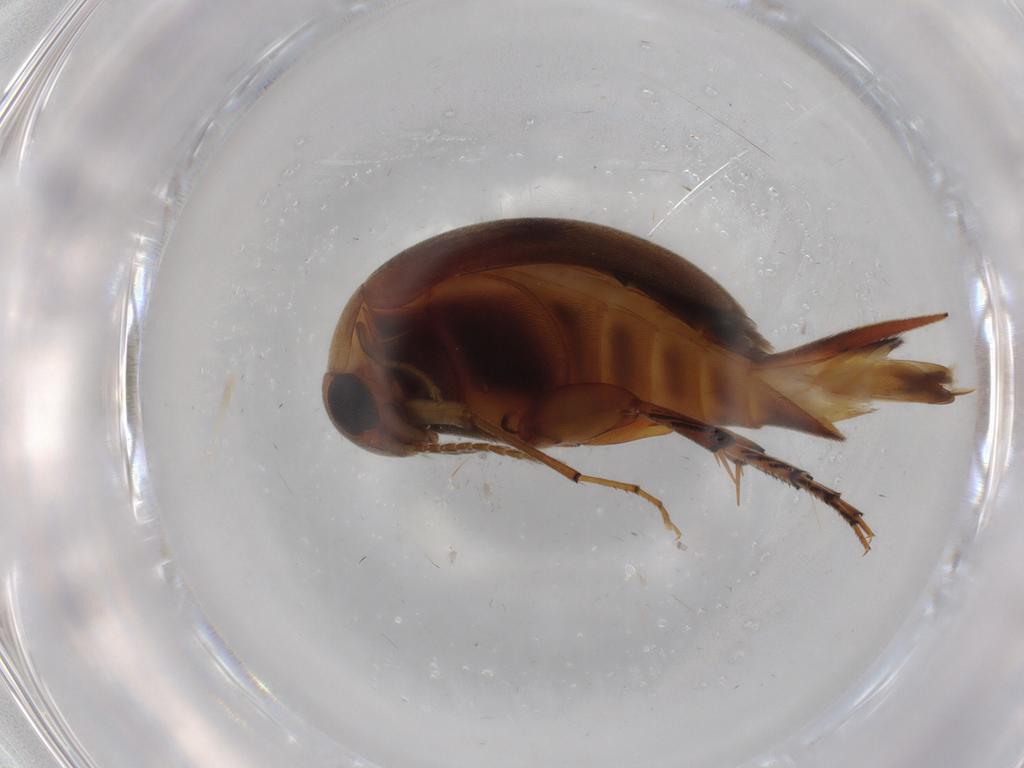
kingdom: Animalia
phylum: Arthropoda
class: Insecta
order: Coleoptera
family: Mordellidae
